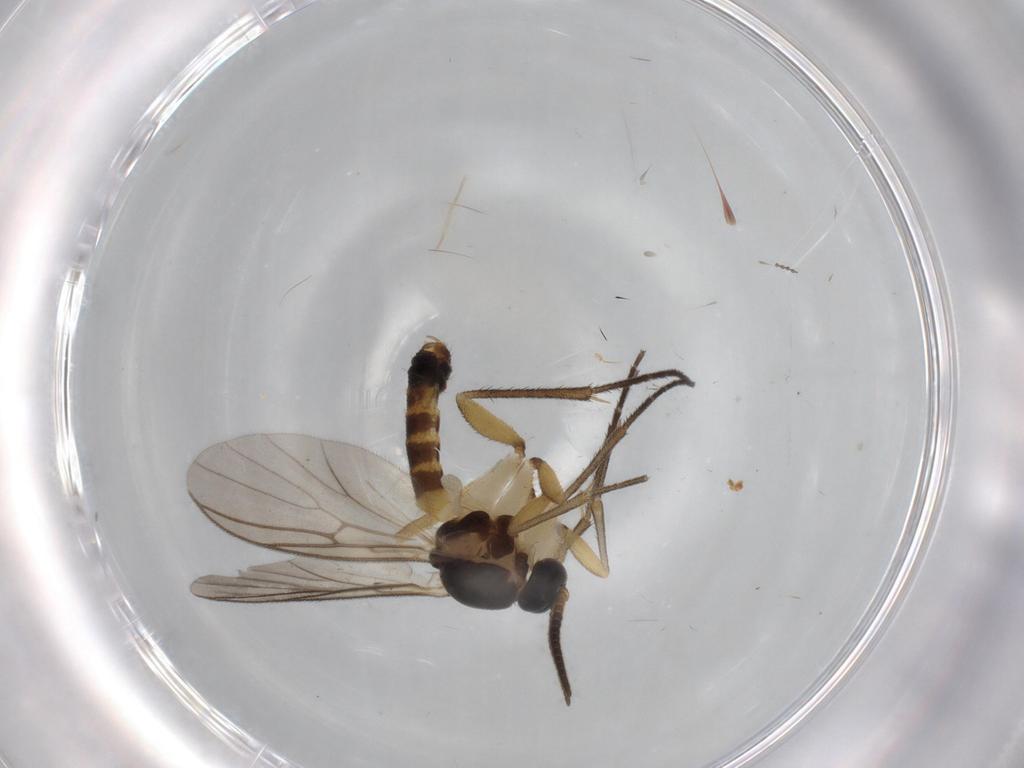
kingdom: Animalia
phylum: Arthropoda
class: Insecta
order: Diptera
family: Mycetophilidae
